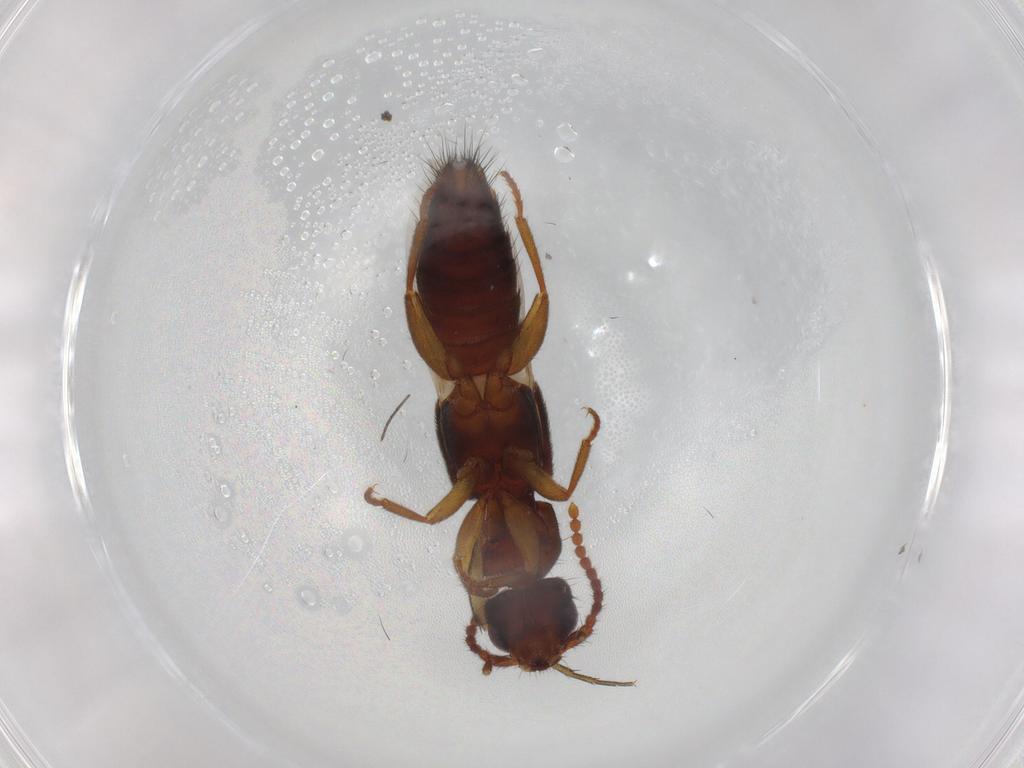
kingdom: Animalia
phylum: Arthropoda
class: Insecta
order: Coleoptera
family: Staphylinidae
